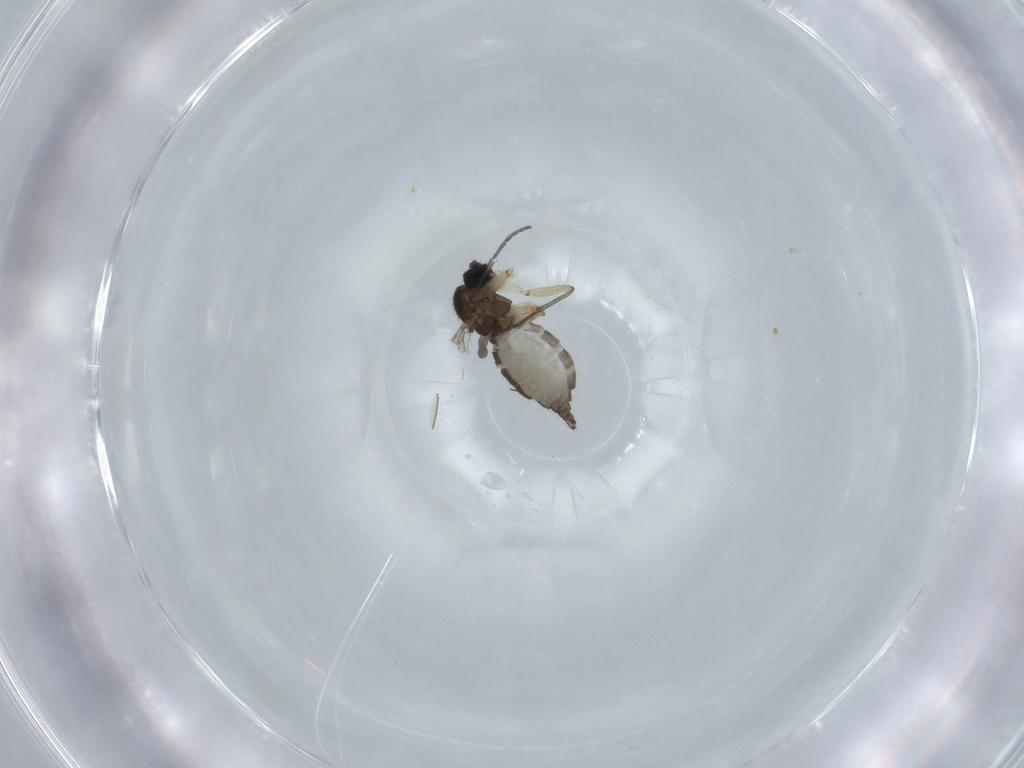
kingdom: Animalia
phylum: Arthropoda
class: Insecta
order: Diptera
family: Sciaridae
